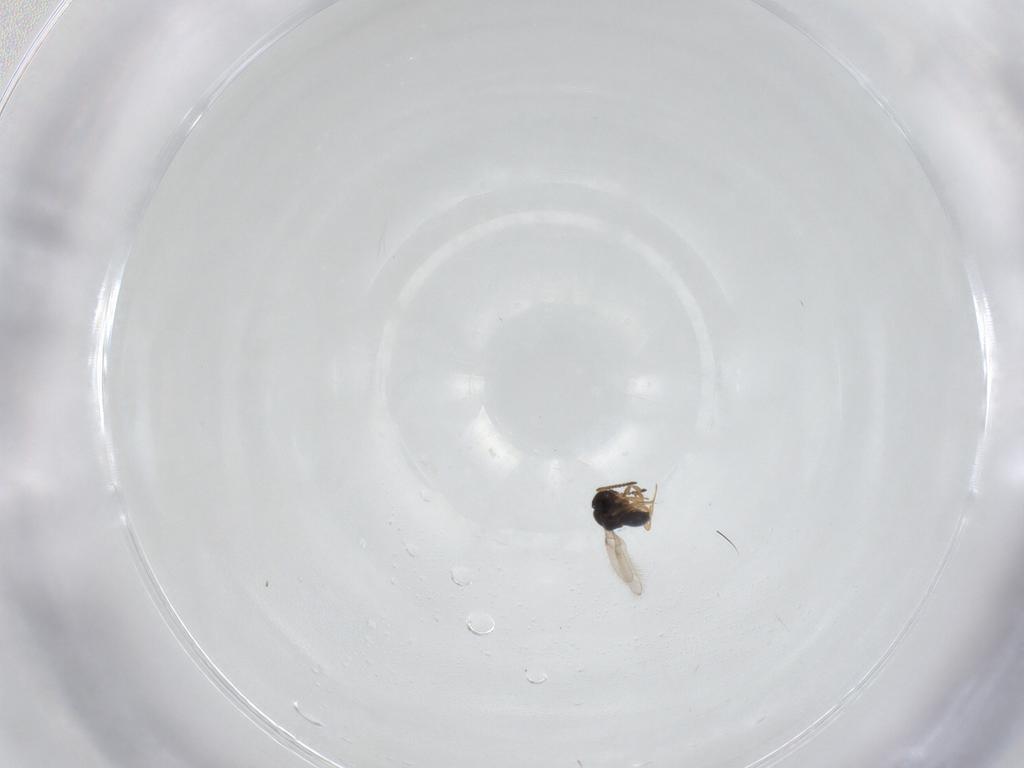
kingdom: Animalia
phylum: Arthropoda
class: Insecta
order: Hymenoptera
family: Scelionidae
